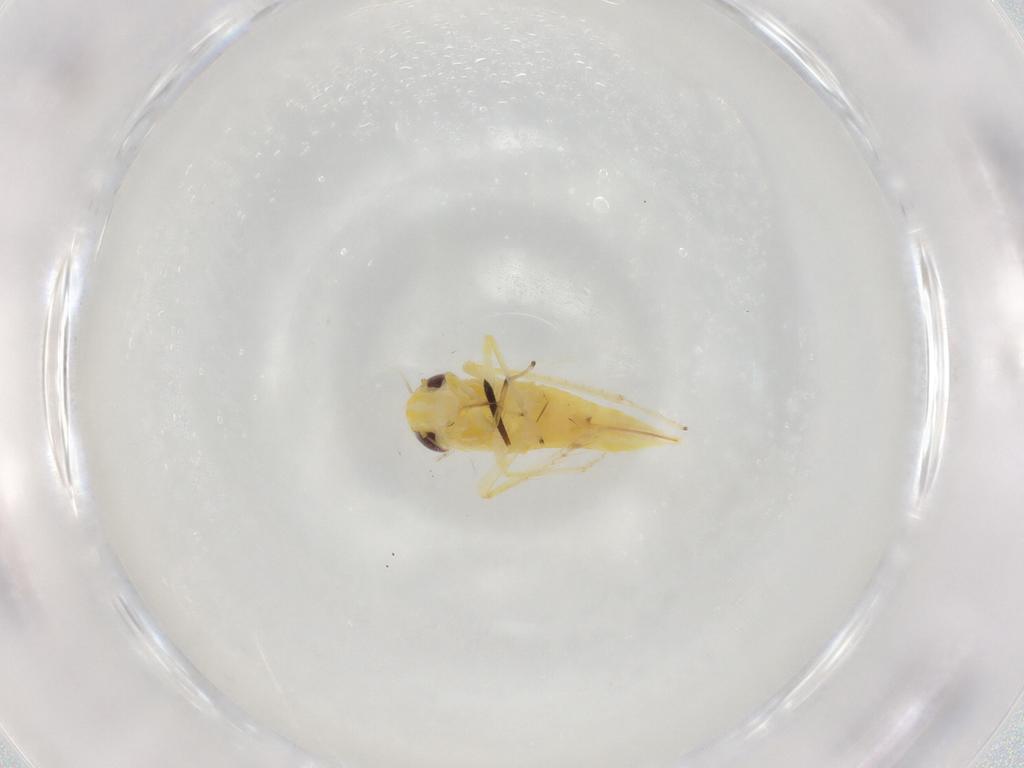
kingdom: Animalia
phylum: Arthropoda
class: Insecta
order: Hemiptera
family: Cicadellidae
